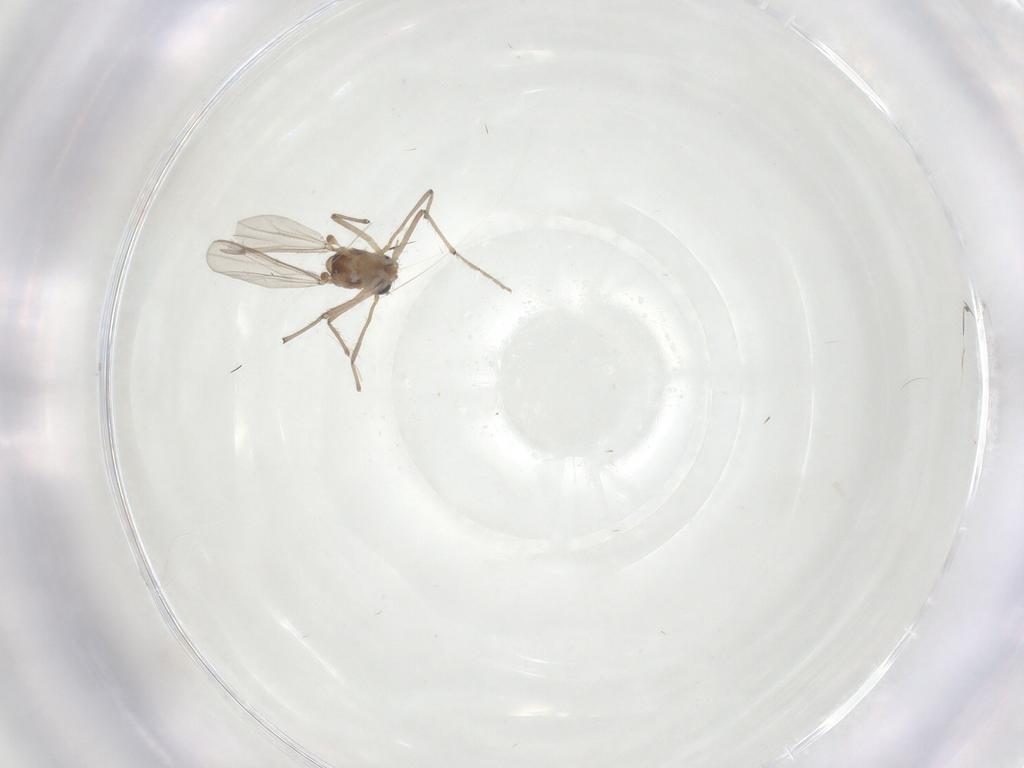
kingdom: Animalia
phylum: Arthropoda
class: Insecta
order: Diptera
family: Chironomidae
